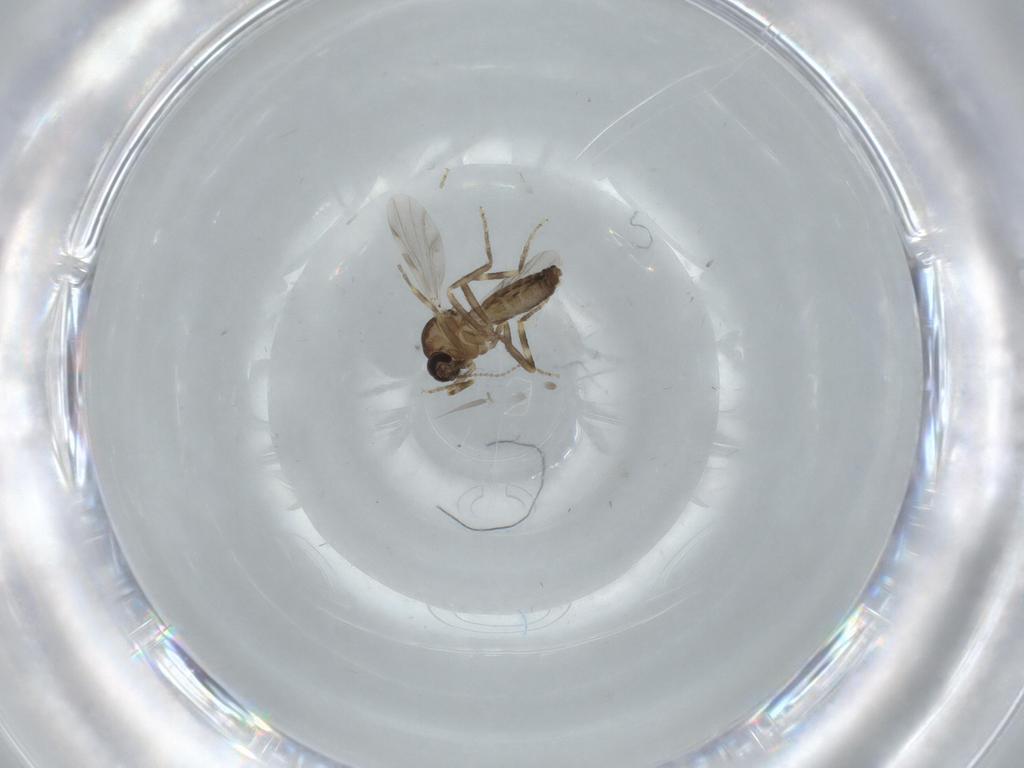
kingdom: Animalia
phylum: Arthropoda
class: Insecta
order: Diptera
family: Ceratopogonidae
